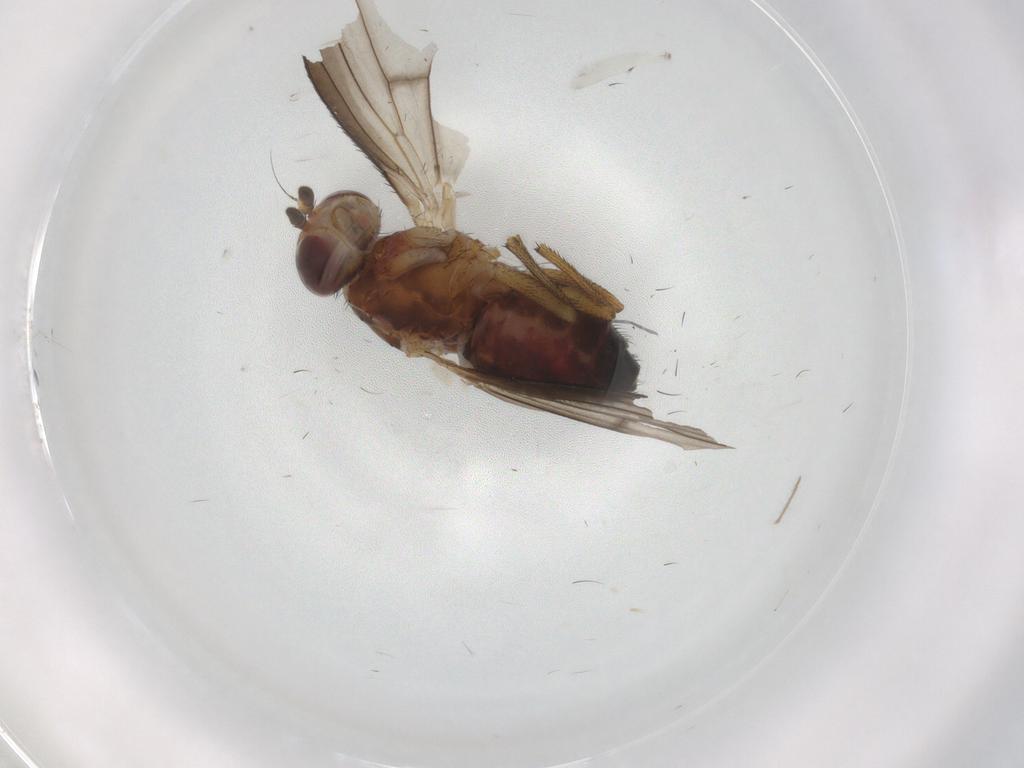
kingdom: Animalia
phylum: Arthropoda
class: Insecta
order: Diptera
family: Heleomyzidae
